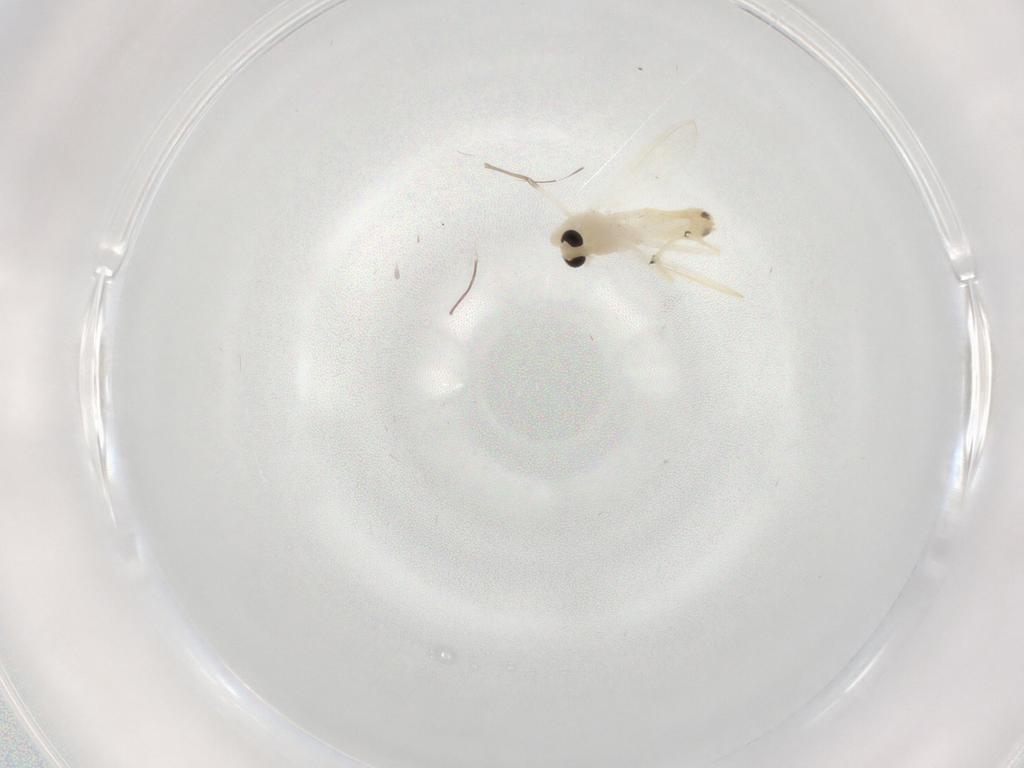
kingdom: Animalia
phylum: Arthropoda
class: Insecta
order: Diptera
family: Chironomidae
